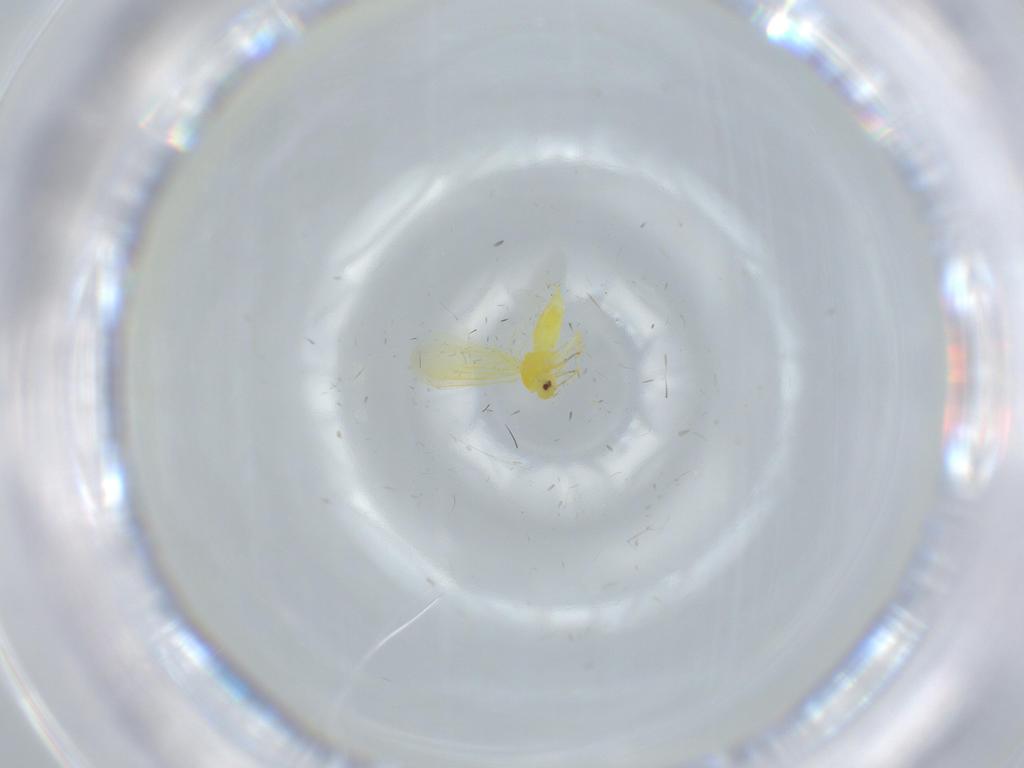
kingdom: Animalia
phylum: Arthropoda
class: Insecta
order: Hemiptera
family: Aleyrodidae
